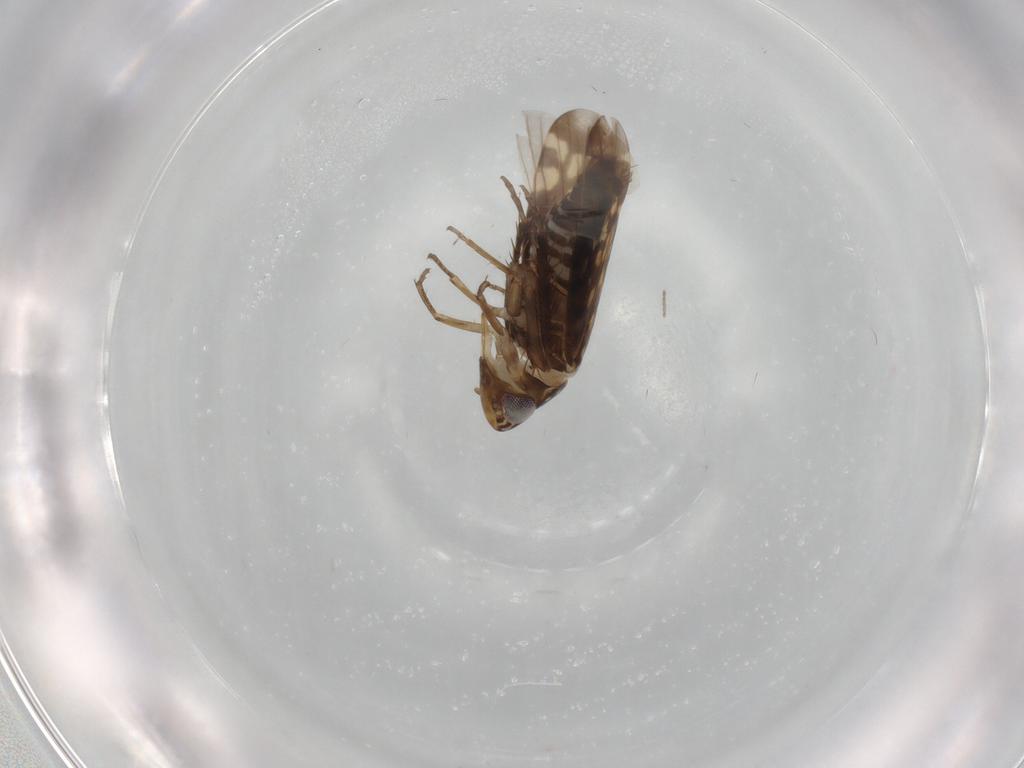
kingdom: Animalia
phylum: Arthropoda
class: Insecta
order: Hemiptera
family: Cicadellidae
